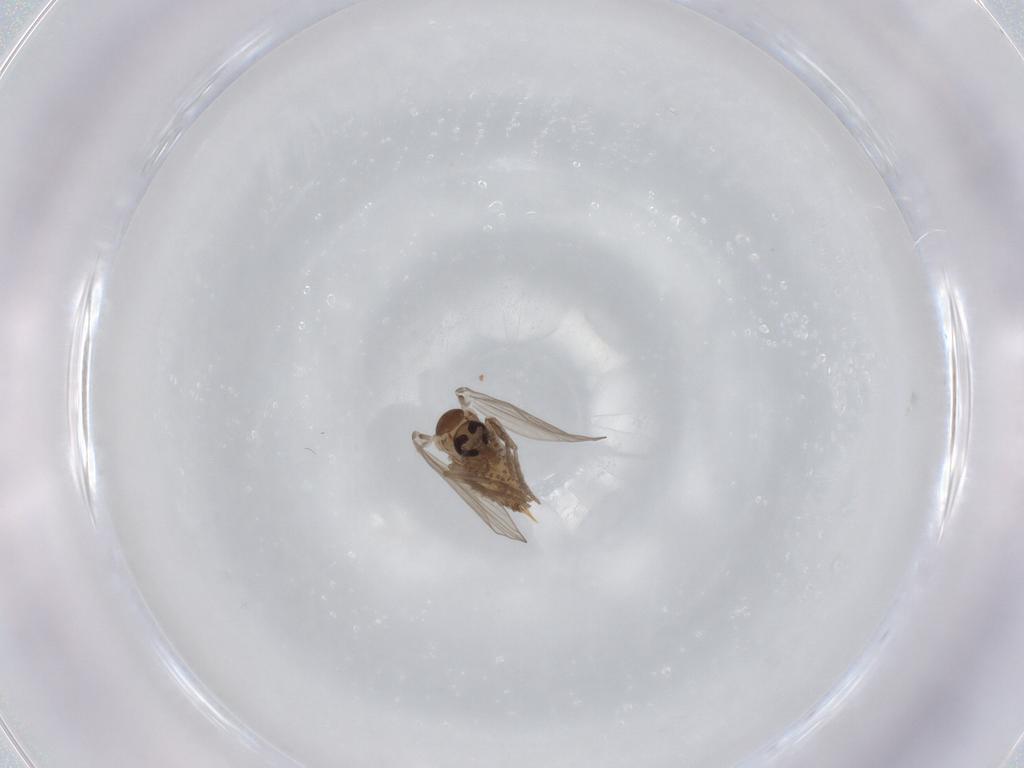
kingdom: Animalia
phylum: Arthropoda
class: Insecta
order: Diptera
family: Psychodidae
